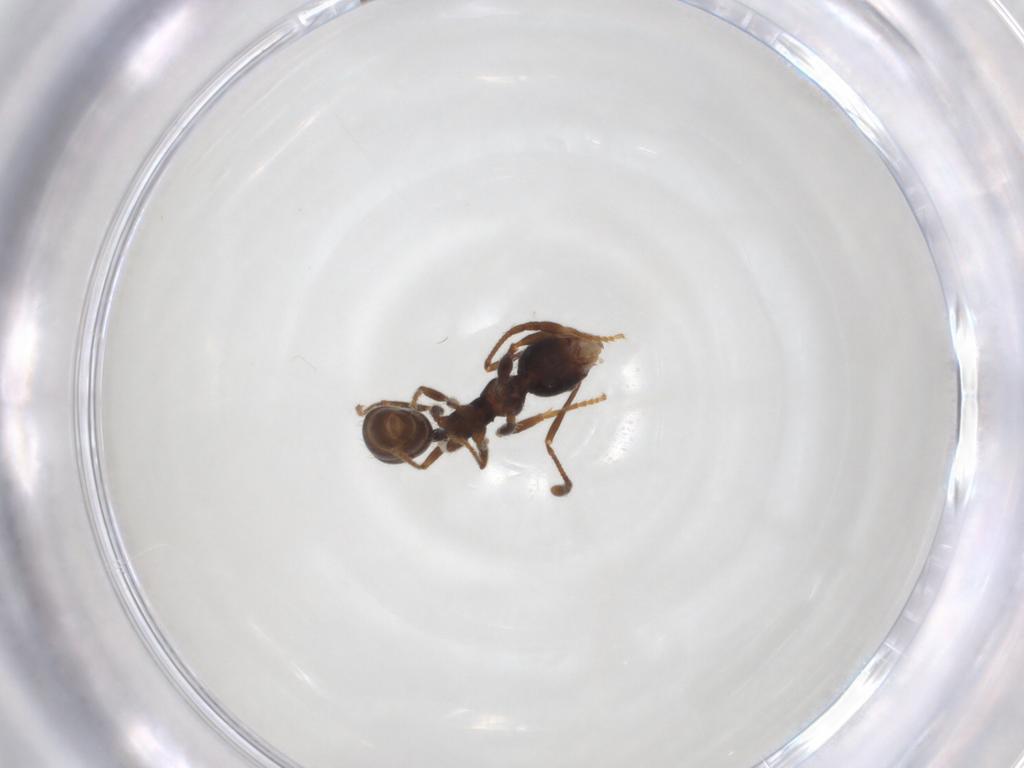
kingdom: Animalia
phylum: Arthropoda
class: Insecta
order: Hymenoptera
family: Formicidae
